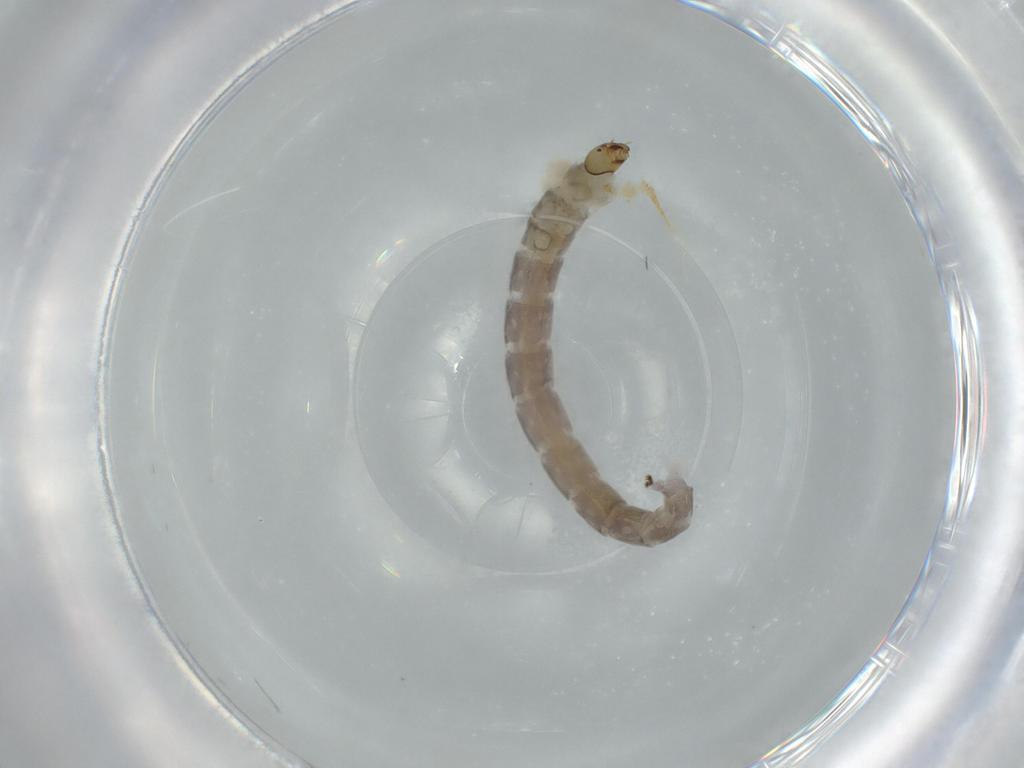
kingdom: Animalia
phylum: Arthropoda
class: Insecta
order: Diptera
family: Chironomidae
